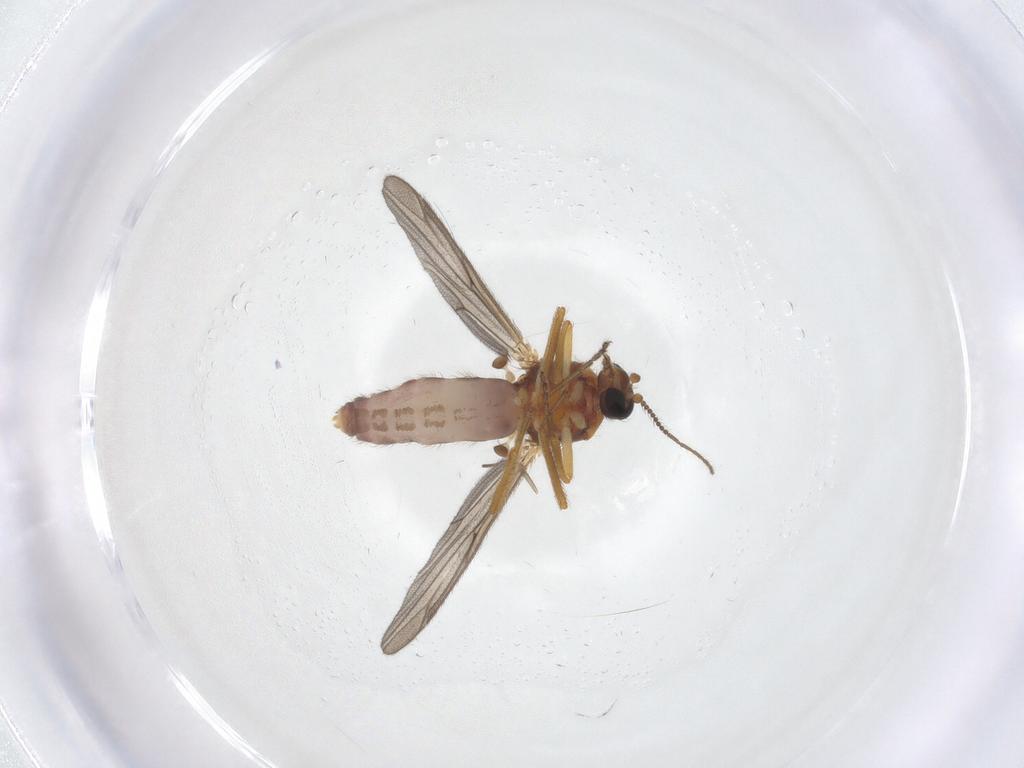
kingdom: Animalia
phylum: Arthropoda
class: Insecta
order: Diptera
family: Ceratopogonidae
